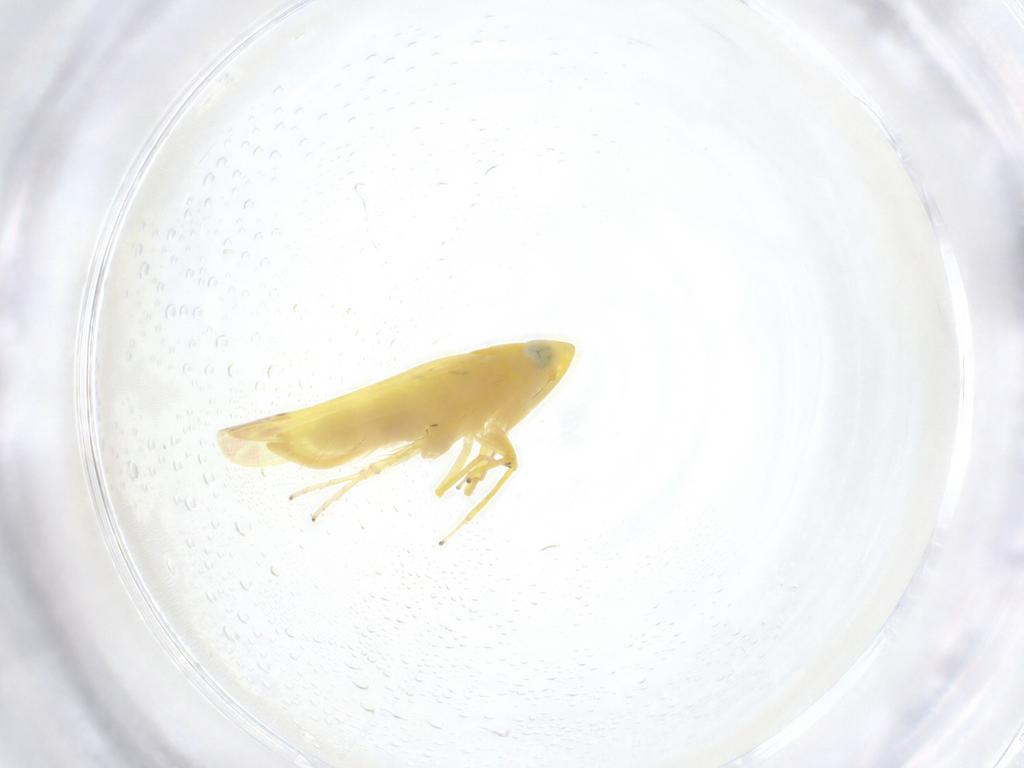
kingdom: Animalia
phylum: Arthropoda
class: Insecta
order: Hemiptera
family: Cicadellidae
